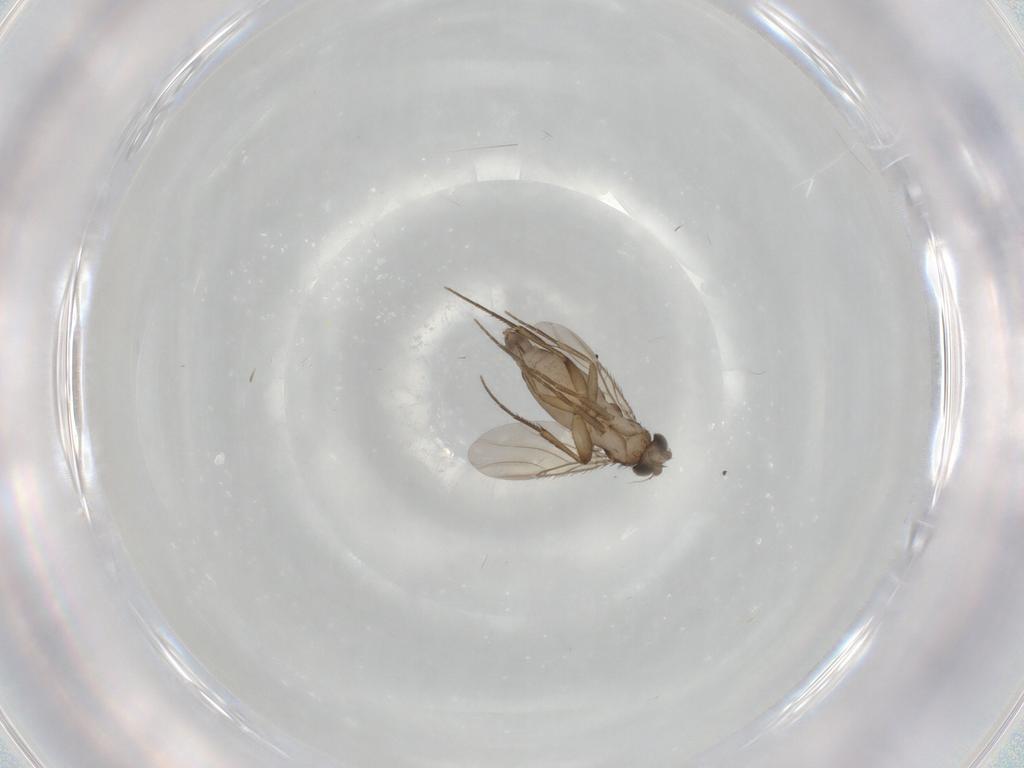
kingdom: Animalia
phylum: Arthropoda
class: Insecta
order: Diptera
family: Phoridae
